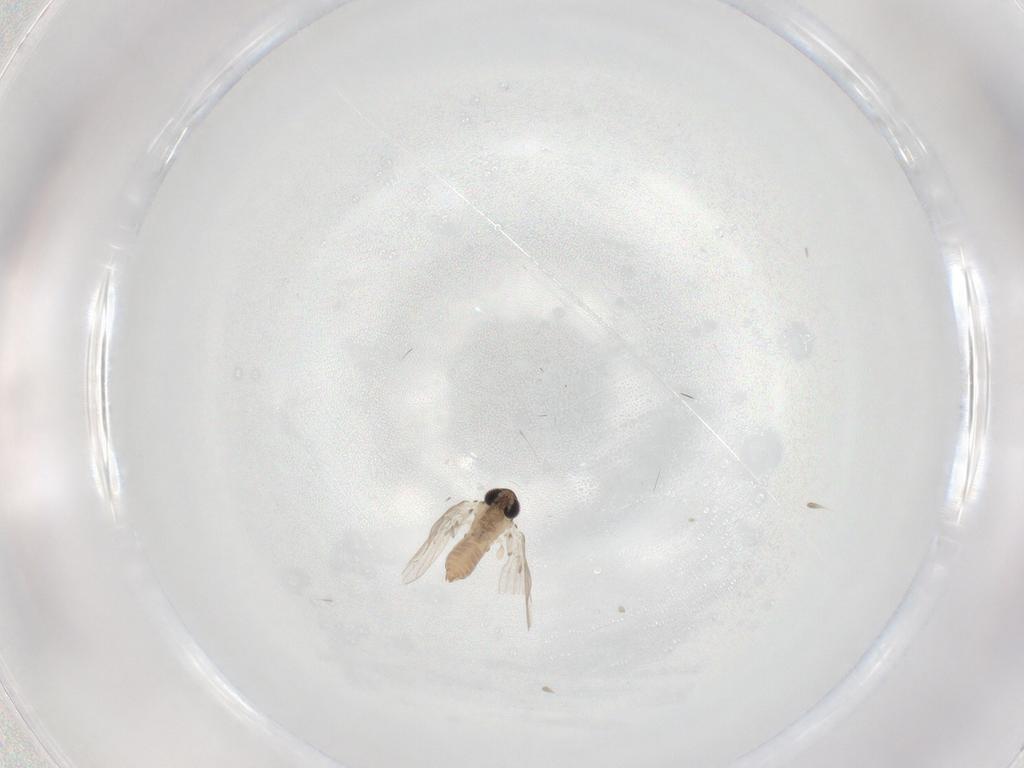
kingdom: Animalia
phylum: Arthropoda
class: Insecta
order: Diptera
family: Psychodidae
